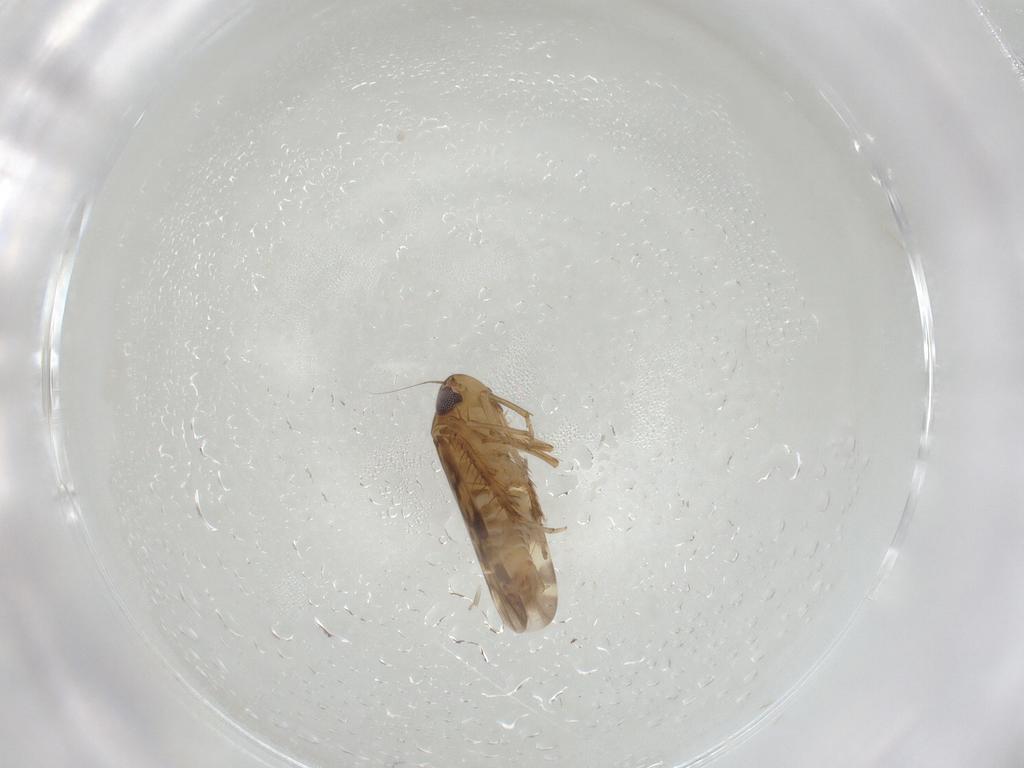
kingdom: Animalia
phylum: Arthropoda
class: Insecta
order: Hemiptera
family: Cicadellidae
